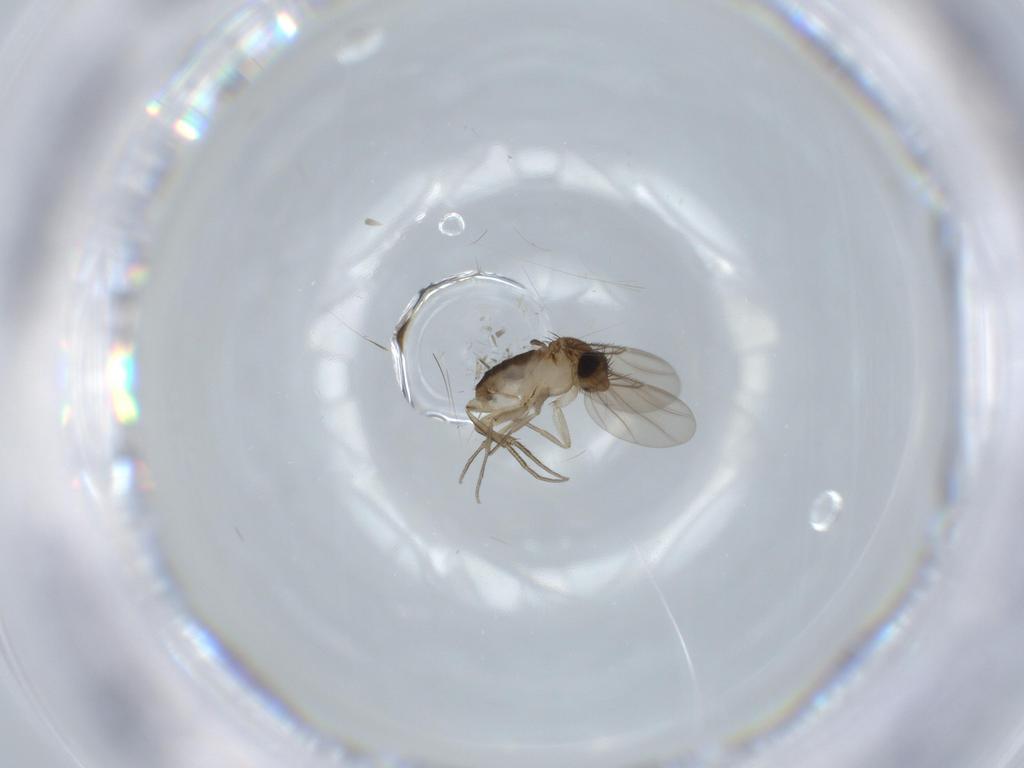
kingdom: Animalia
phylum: Arthropoda
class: Insecta
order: Diptera
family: Phoridae
